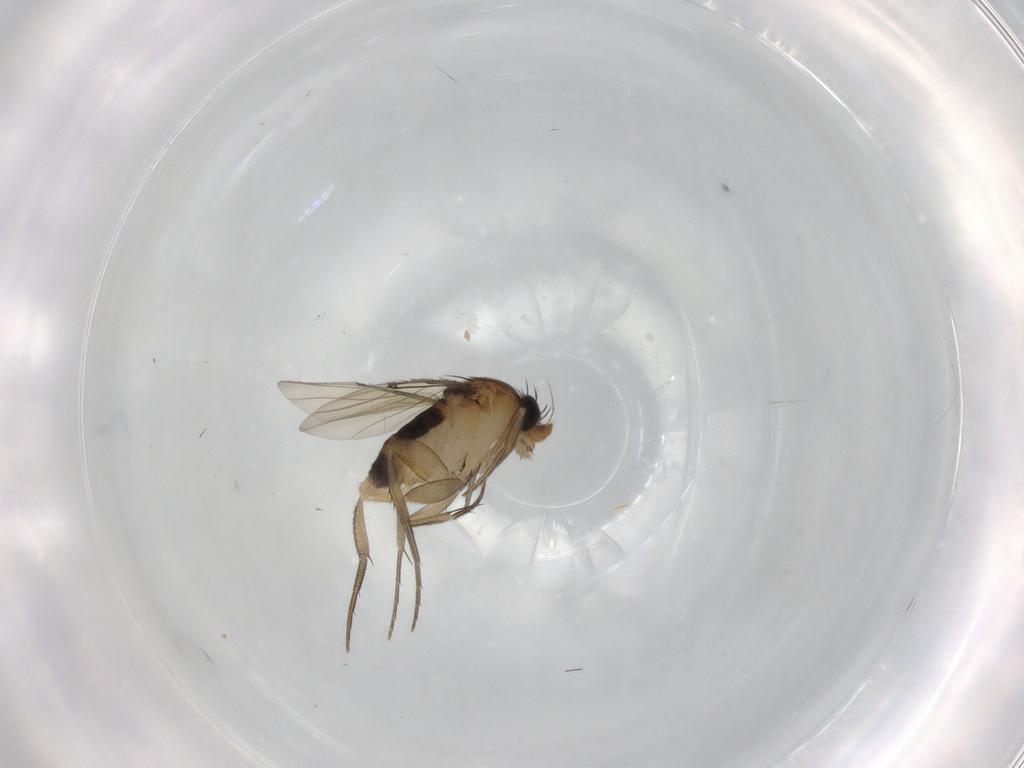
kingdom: Animalia
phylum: Arthropoda
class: Insecta
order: Diptera
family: Phoridae
